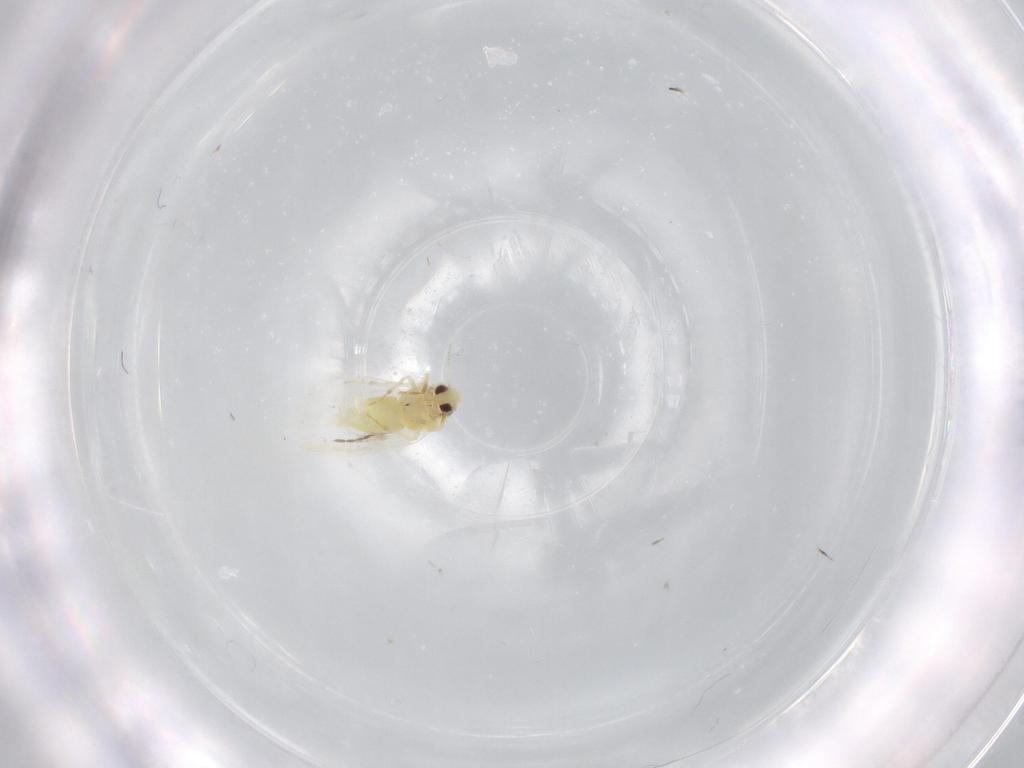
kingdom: Animalia
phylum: Arthropoda
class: Insecta
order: Hemiptera
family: Aleyrodidae
